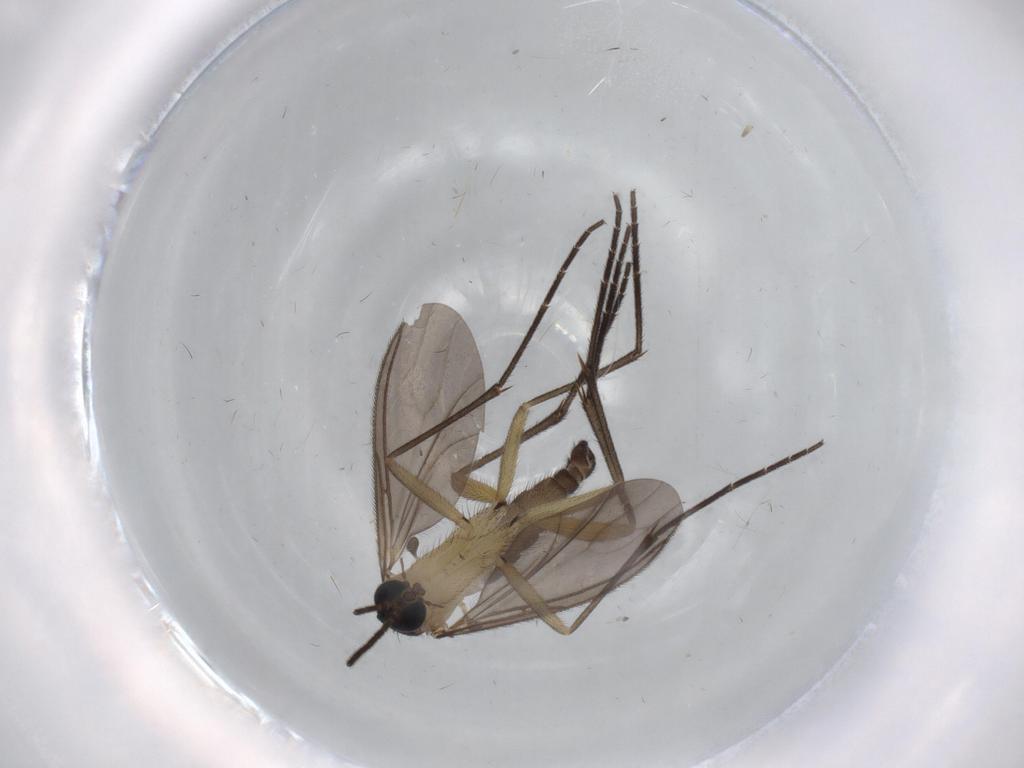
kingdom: Animalia
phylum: Arthropoda
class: Insecta
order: Diptera
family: Sciaridae
